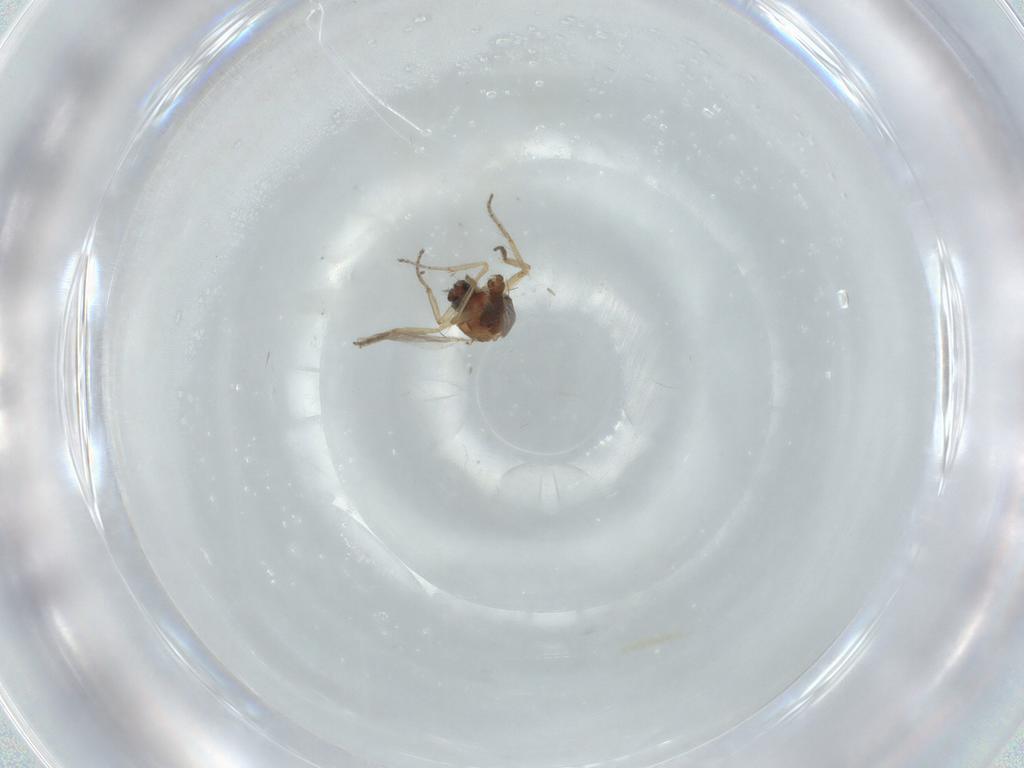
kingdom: Animalia
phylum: Arthropoda
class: Insecta
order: Diptera
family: Ceratopogonidae
